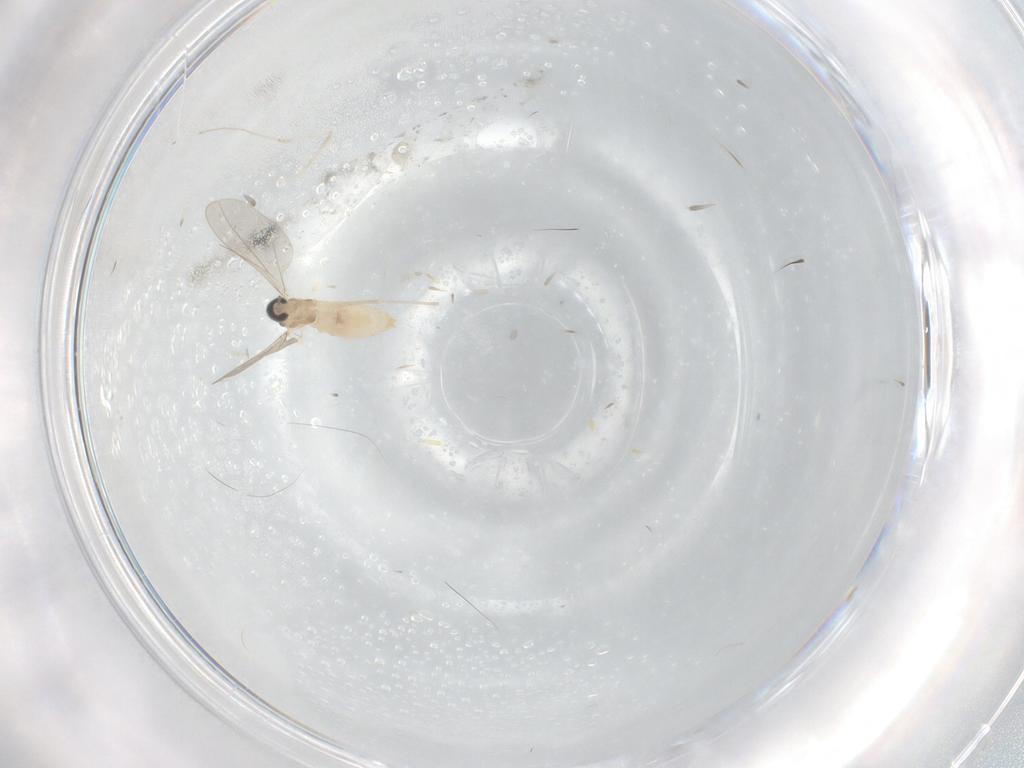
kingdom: Animalia
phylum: Arthropoda
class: Insecta
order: Diptera
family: Cecidomyiidae
